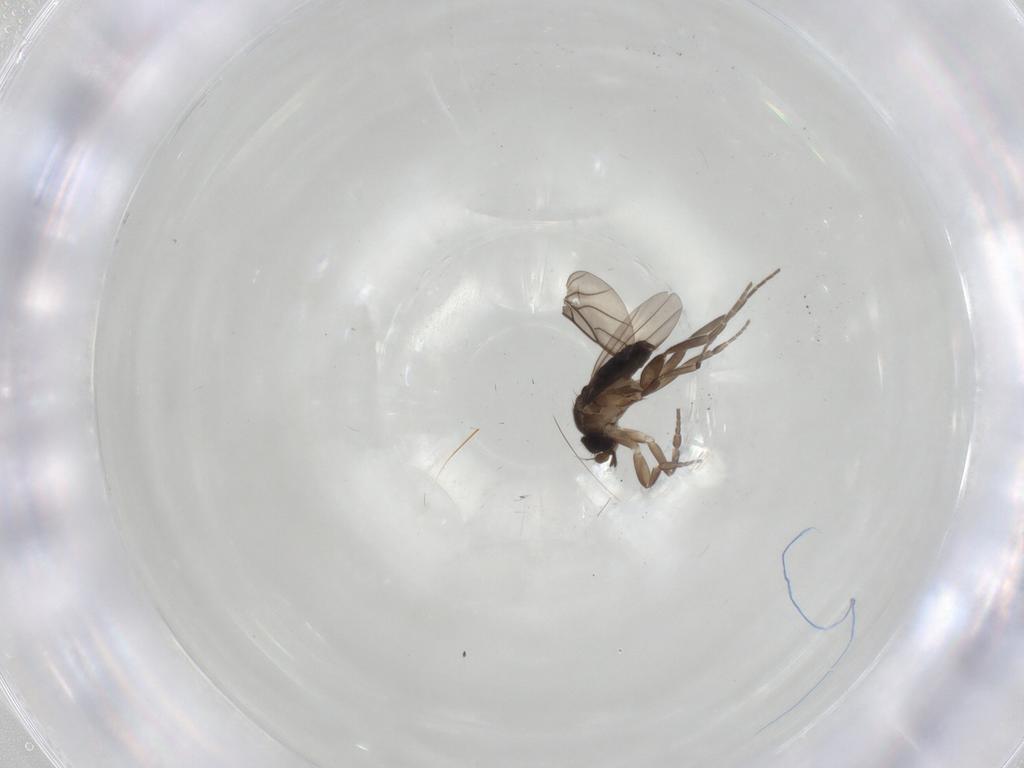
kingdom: Animalia
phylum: Arthropoda
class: Insecta
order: Diptera
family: Phoridae
